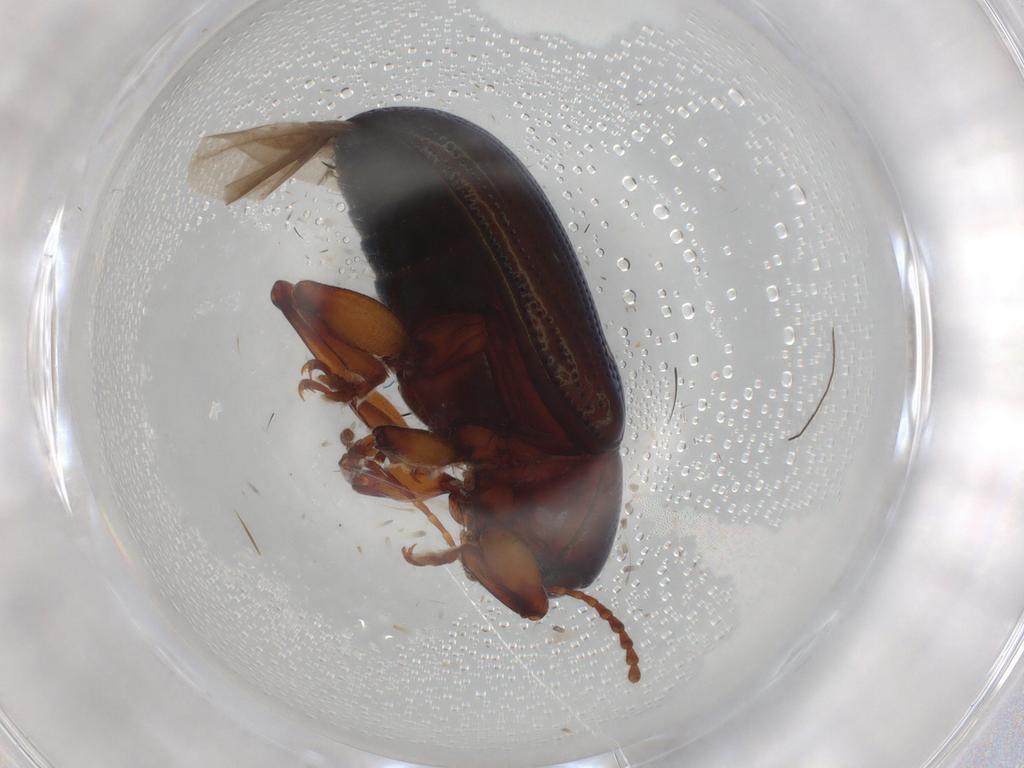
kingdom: Animalia
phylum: Arthropoda
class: Insecta
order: Coleoptera
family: Chrysomelidae
